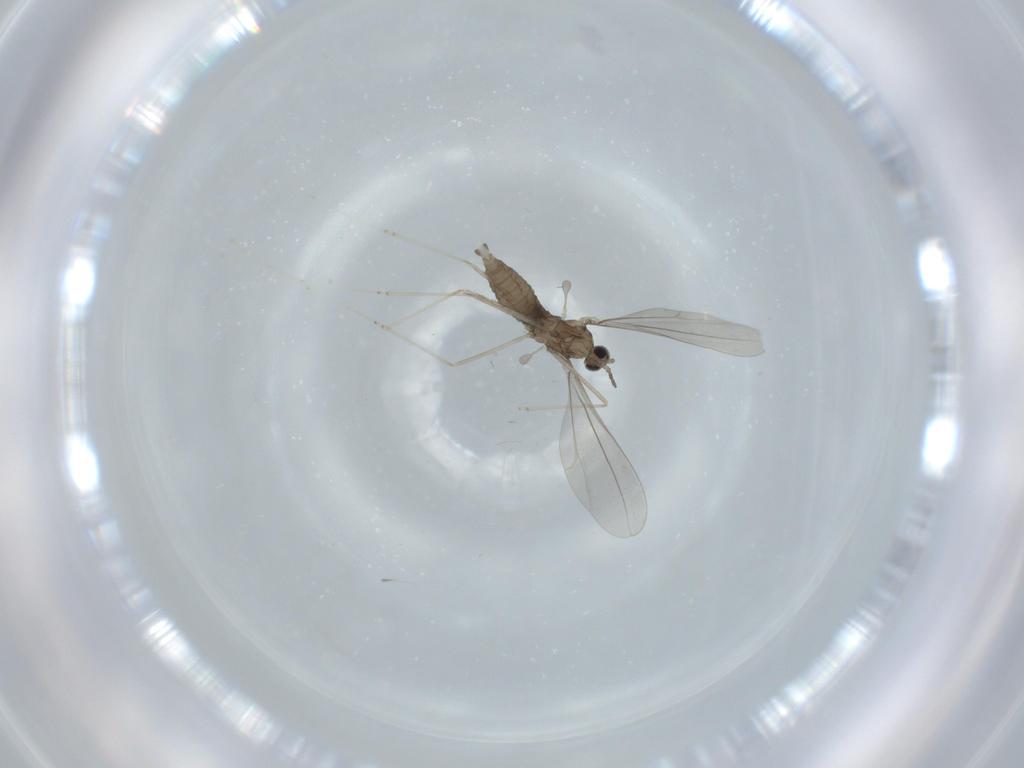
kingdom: Animalia
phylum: Arthropoda
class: Insecta
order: Diptera
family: Cecidomyiidae
